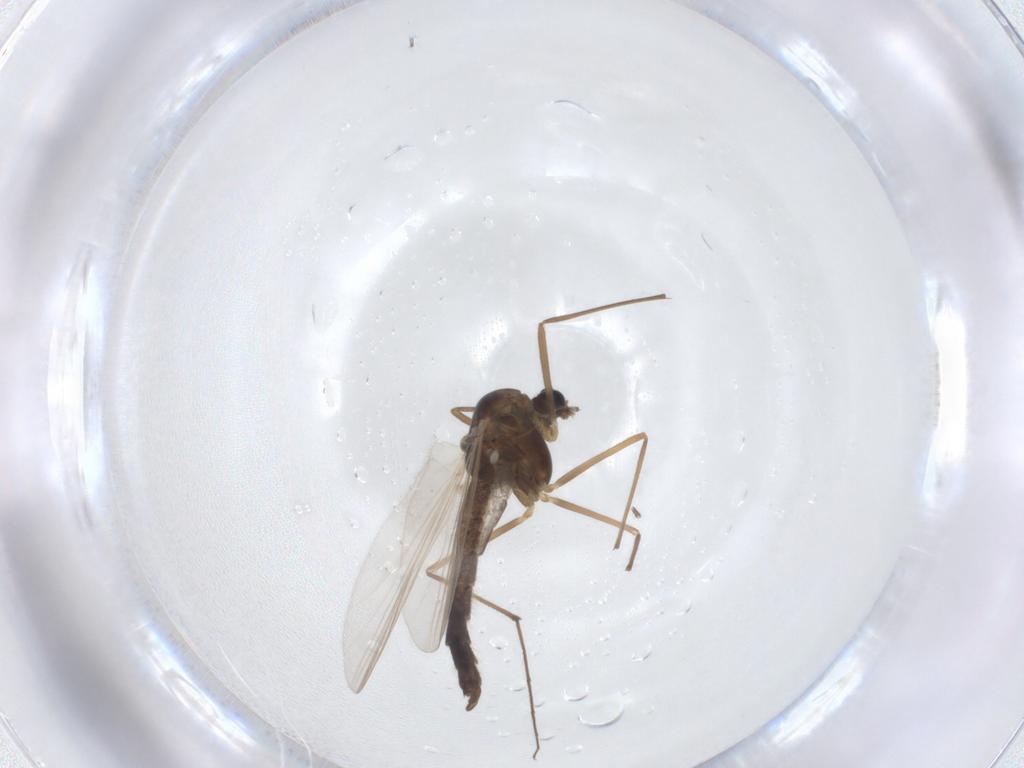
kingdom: Animalia
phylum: Arthropoda
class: Insecta
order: Diptera
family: Chironomidae
